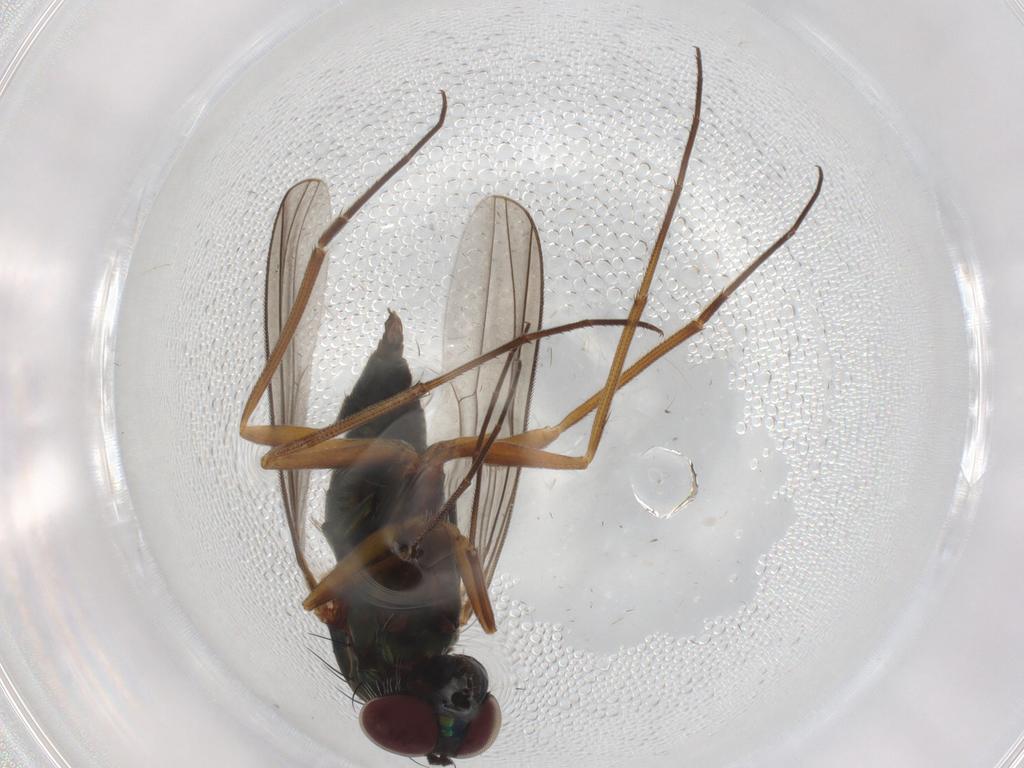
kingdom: Animalia
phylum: Arthropoda
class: Insecta
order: Diptera
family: Dolichopodidae
